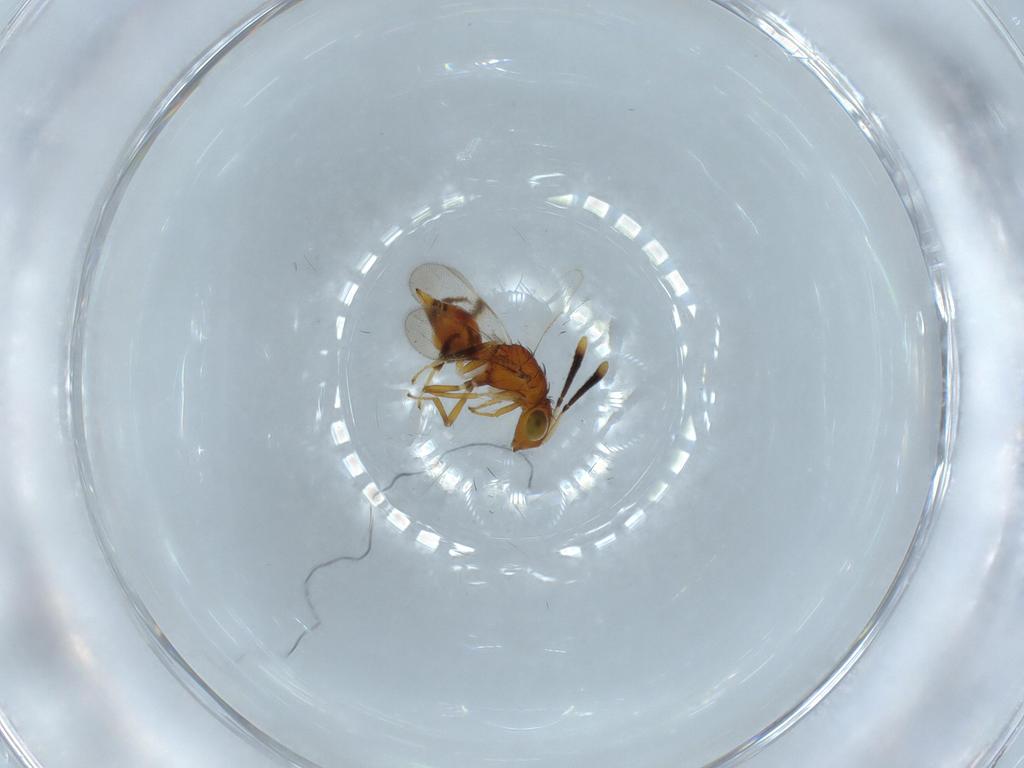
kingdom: Animalia
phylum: Arthropoda
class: Insecta
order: Hymenoptera
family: Diparidae
